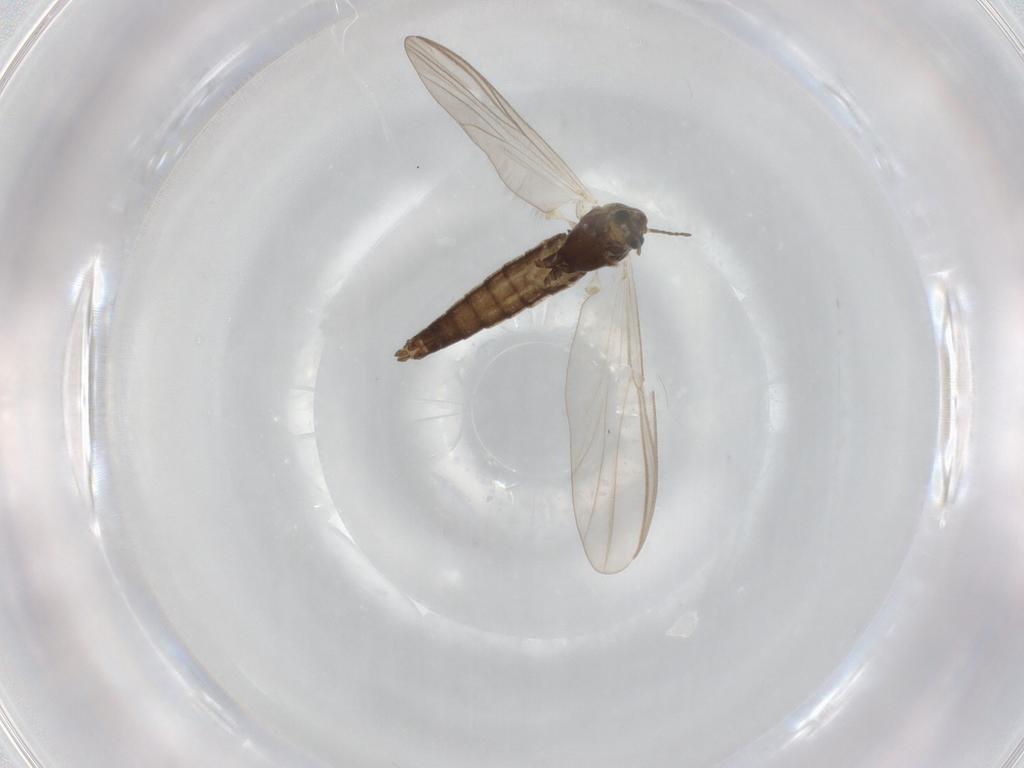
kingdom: Animalia
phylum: Arthropoda
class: Insecta
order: Diptera
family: Chironomidae
